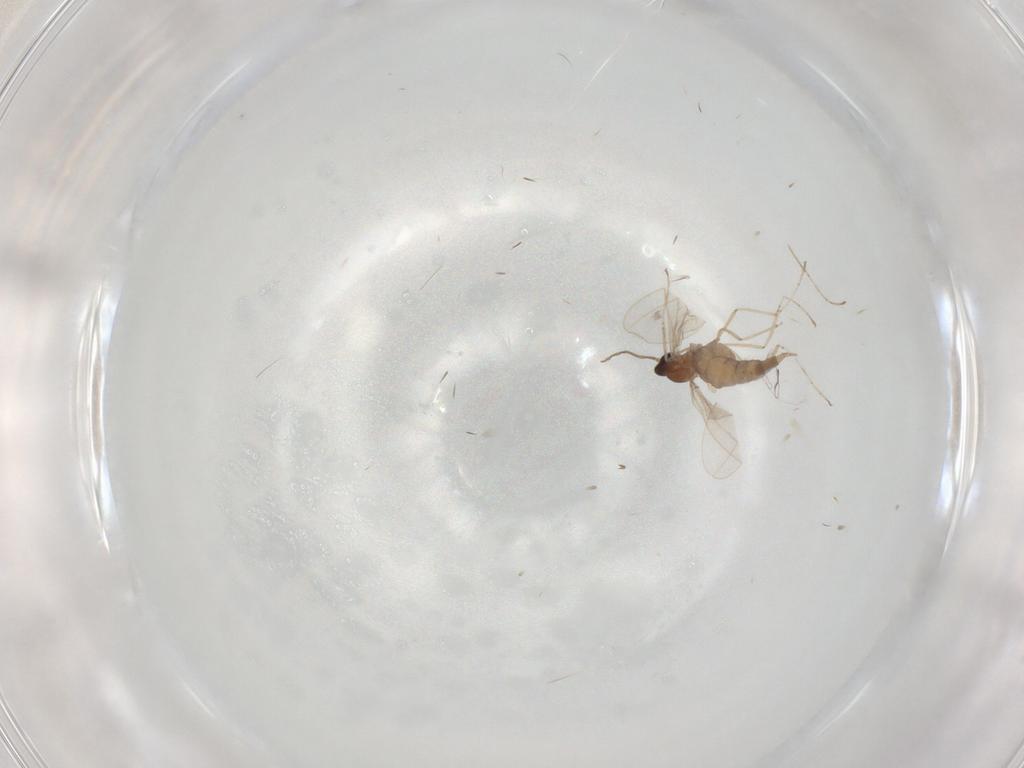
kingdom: Animalia
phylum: Arthropoda
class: Insecta
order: Diptera
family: Cecidomyiidae
